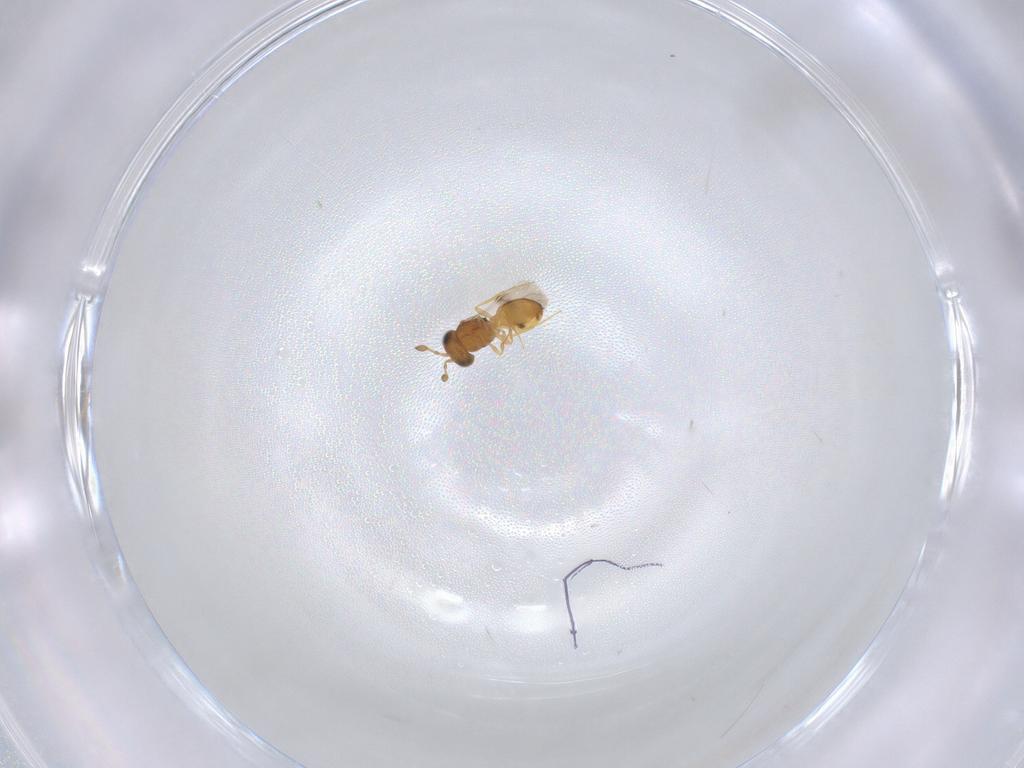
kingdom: Animalia
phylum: Arthropoda
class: Insecta
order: Hymenoptera
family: Scelionidae
